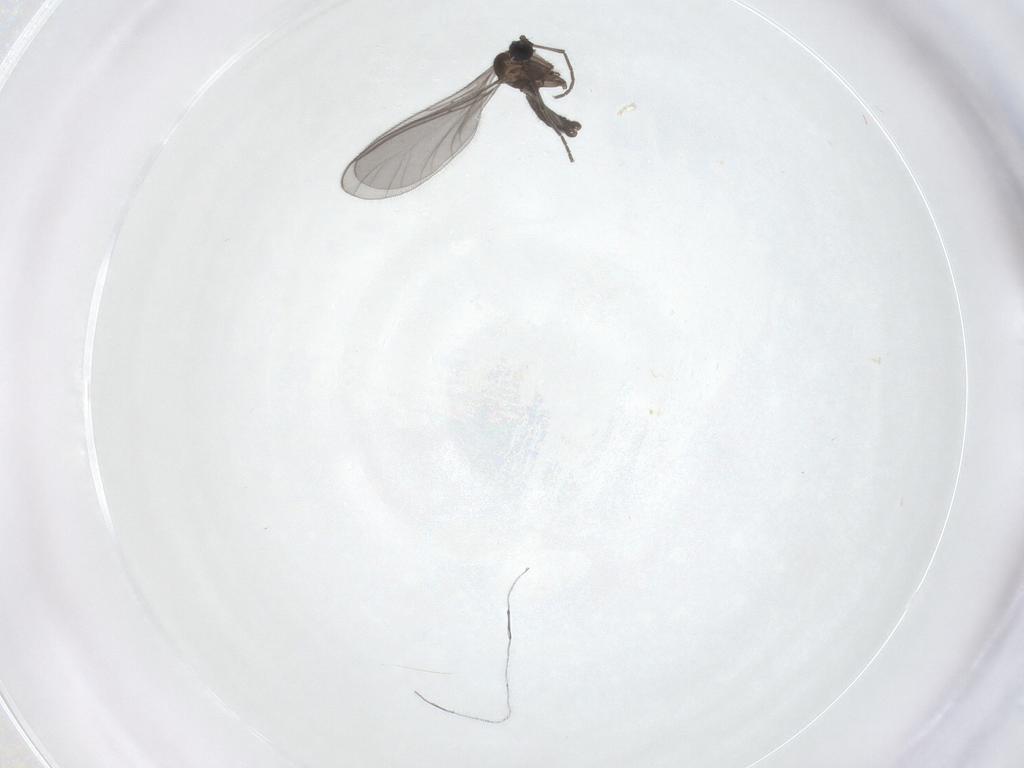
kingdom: Animalia
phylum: Arthropoda
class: Insecta
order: Diptera
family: Sciaridae
